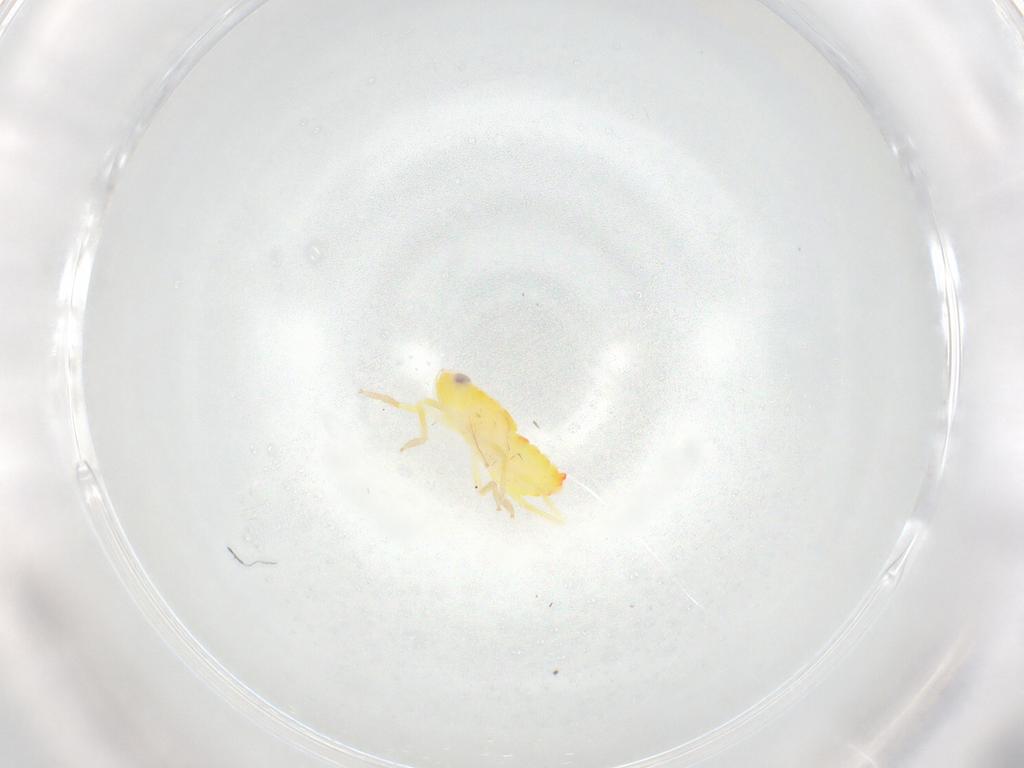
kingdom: Animalia
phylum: Arthropoda
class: Insecta
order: Hemiptera
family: Tropiduchidae
